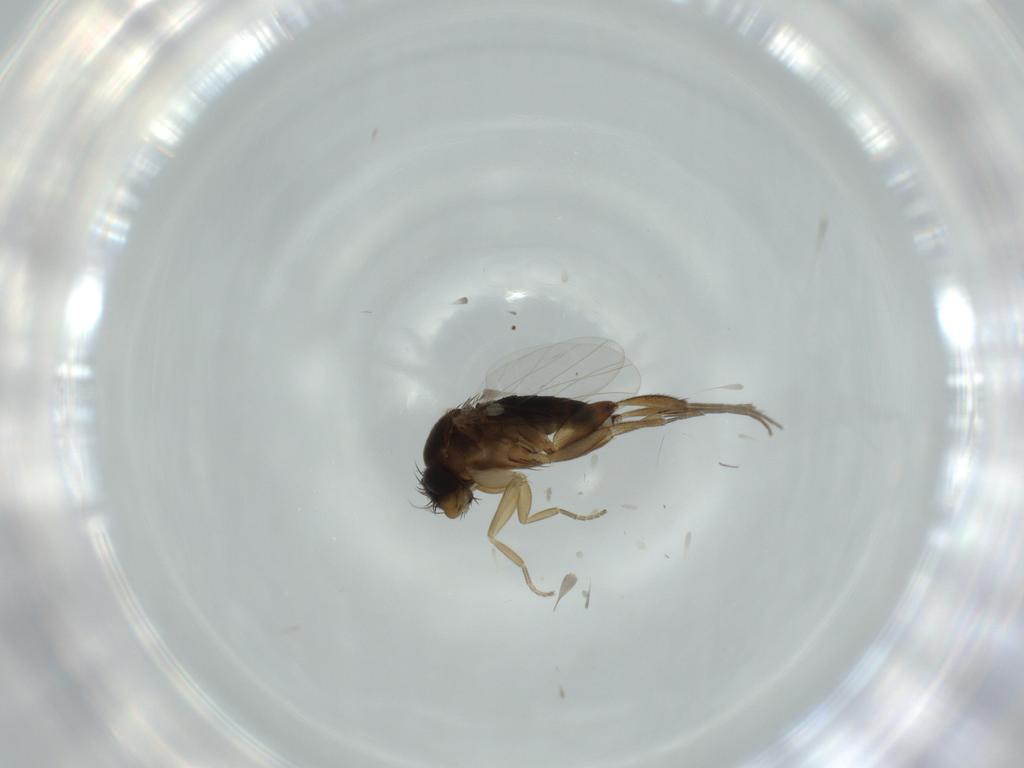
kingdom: Animalia
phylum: Arthropoda
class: Insecta
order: Diptera
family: Phoridae
